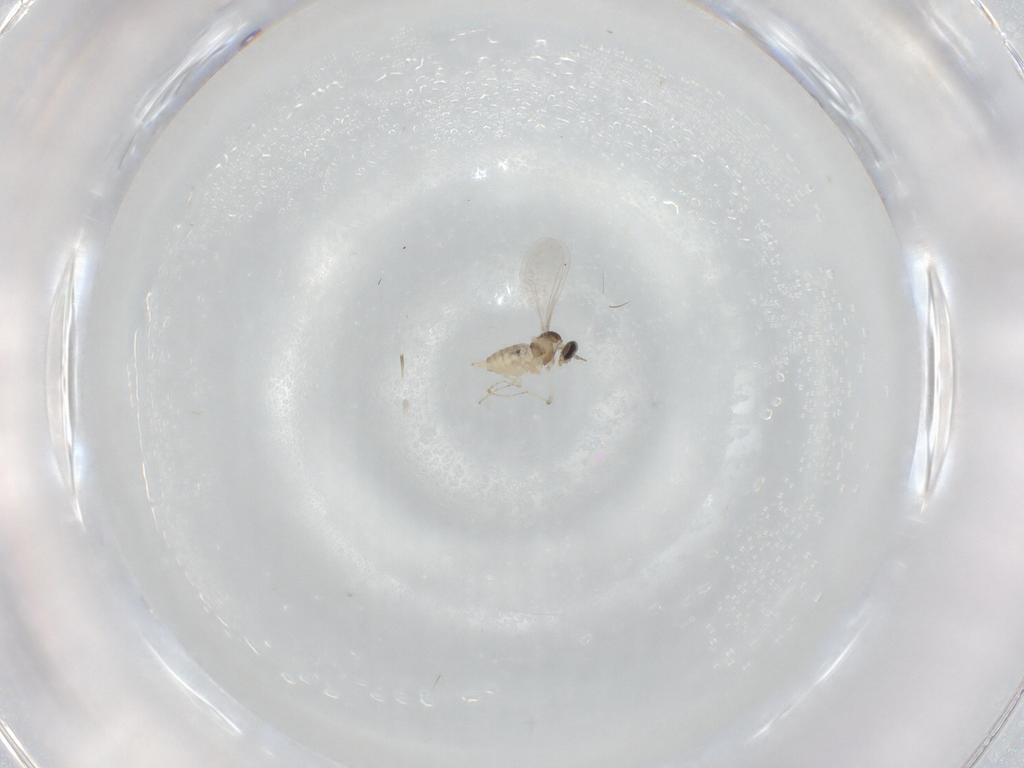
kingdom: Animalia
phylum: Arthropoda
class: Insecta
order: Diptera
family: Cecidomyiidae
